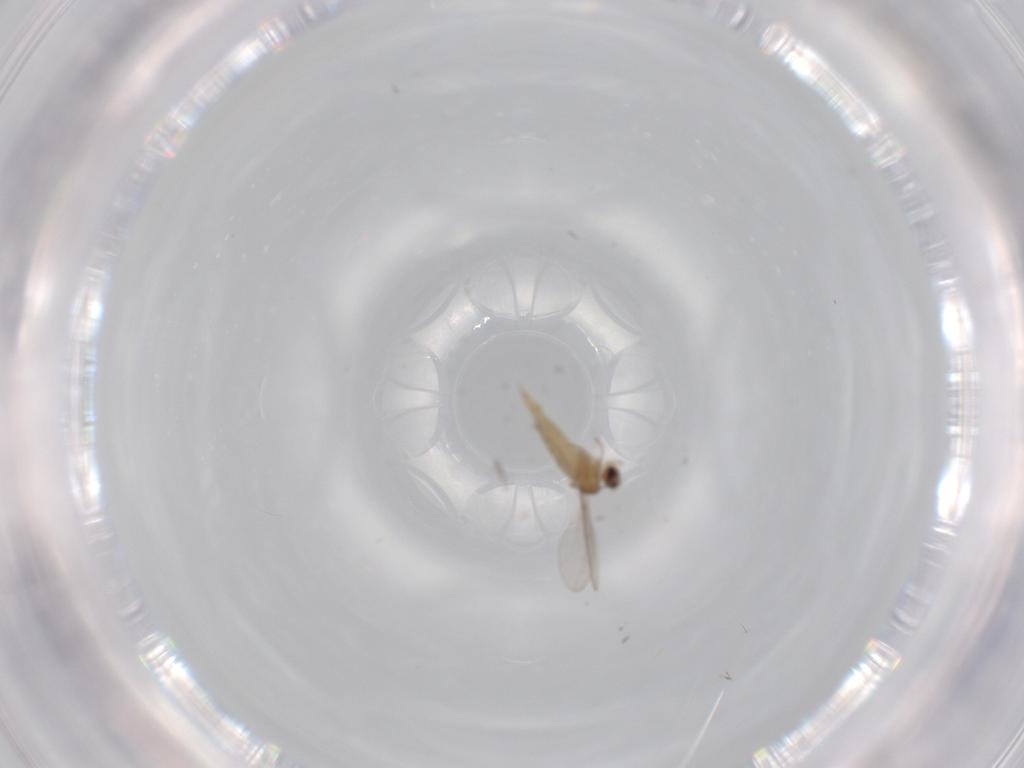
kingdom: Animalia
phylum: Arthropoda
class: Insecta
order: Diptera
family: Cecidomyiidae
